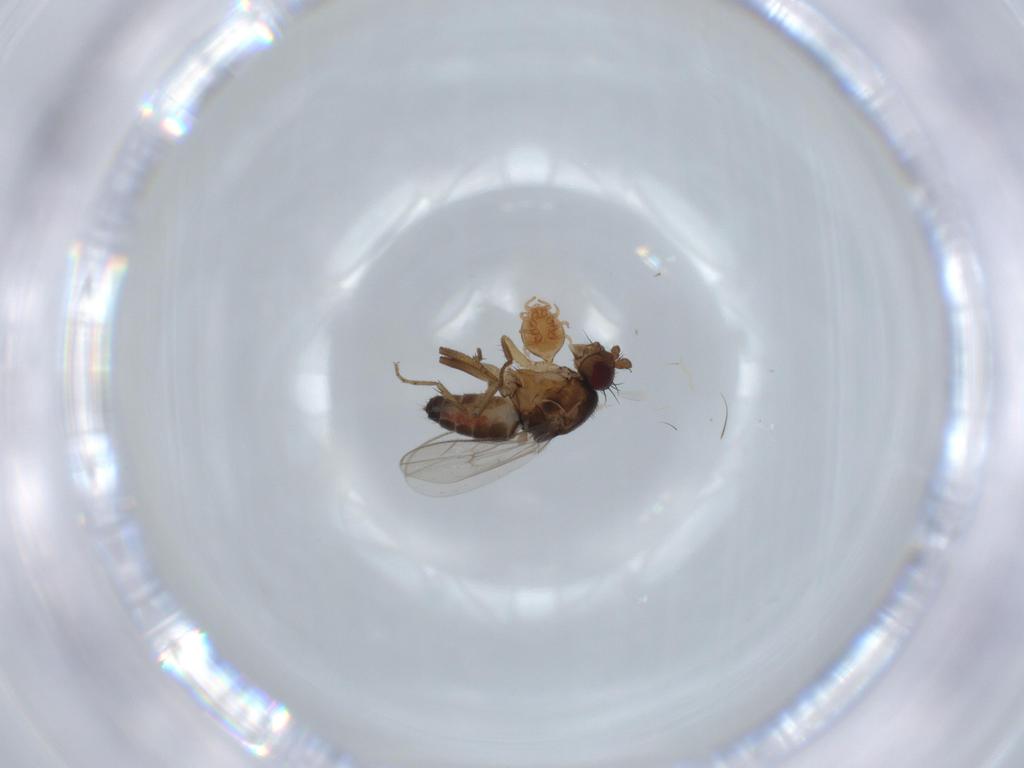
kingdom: Animalia
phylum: Arthropoda
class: Insecta
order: Diptera
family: Sphaeroceridae
